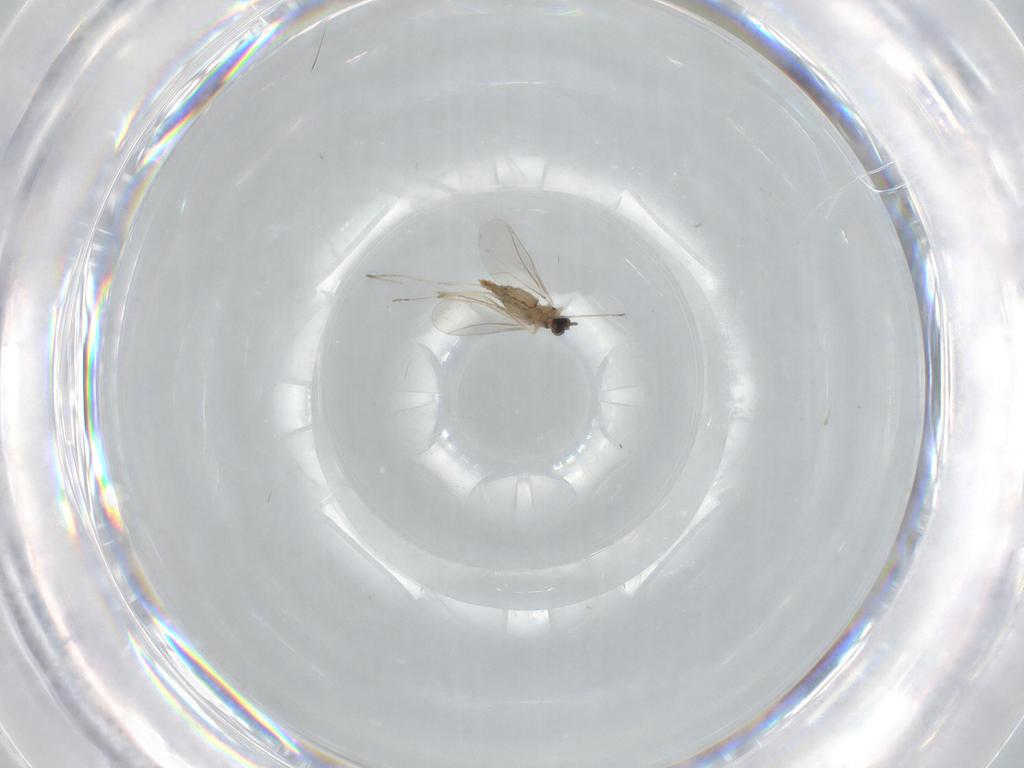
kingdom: Animalia
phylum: Arthropoda
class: Insecta
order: Diptera
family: Cecidomyiidae
